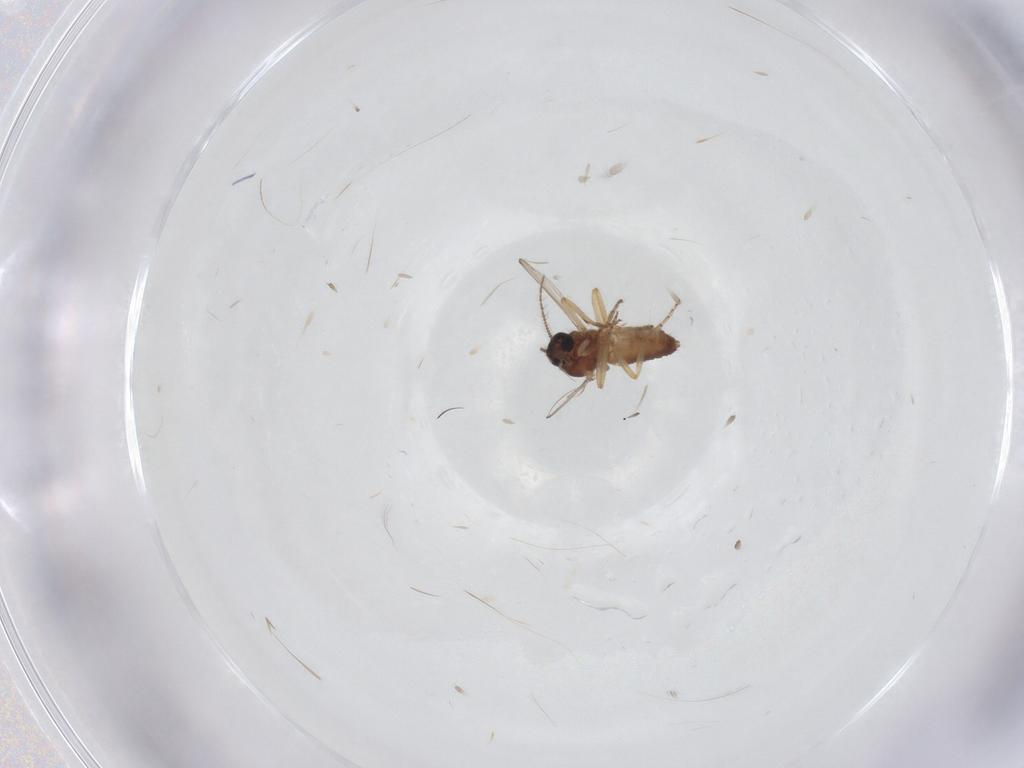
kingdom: Animalia
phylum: Arthropoda
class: Insecta
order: Diptera
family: Ceratopogonidae
